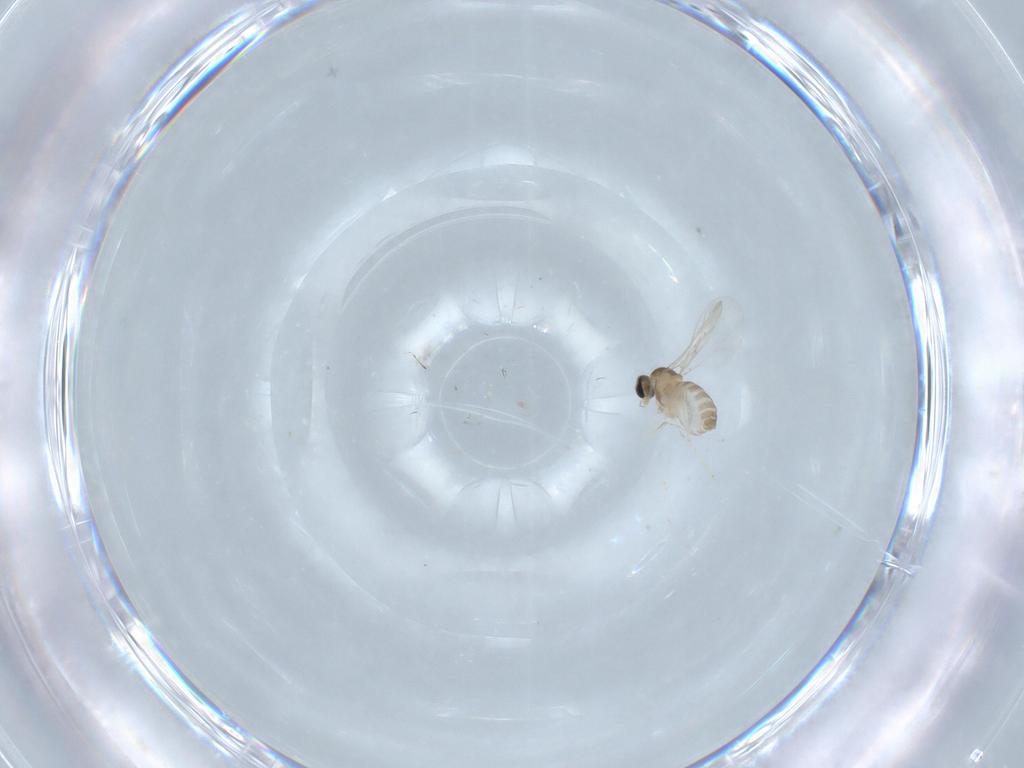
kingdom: Animalia
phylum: Arthropoda
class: Insecta
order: Diptera
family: Cecidomyiidae
